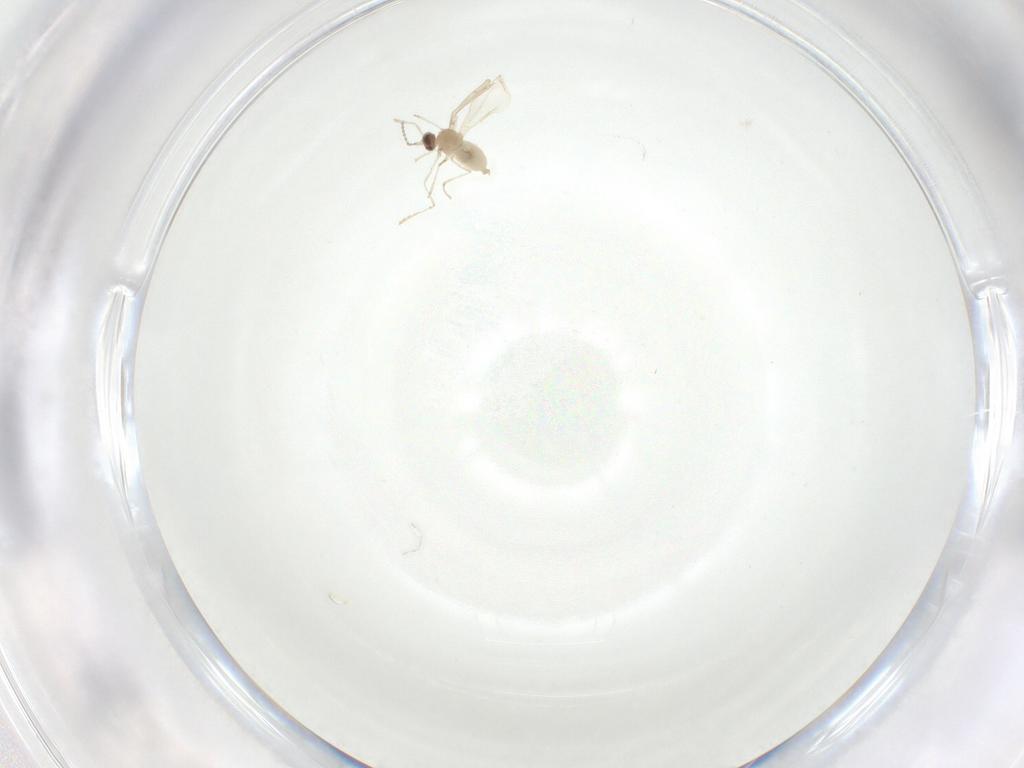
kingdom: Animalia
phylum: Arthropoda
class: Insecta
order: Diptera
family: Cecidomyiidae
